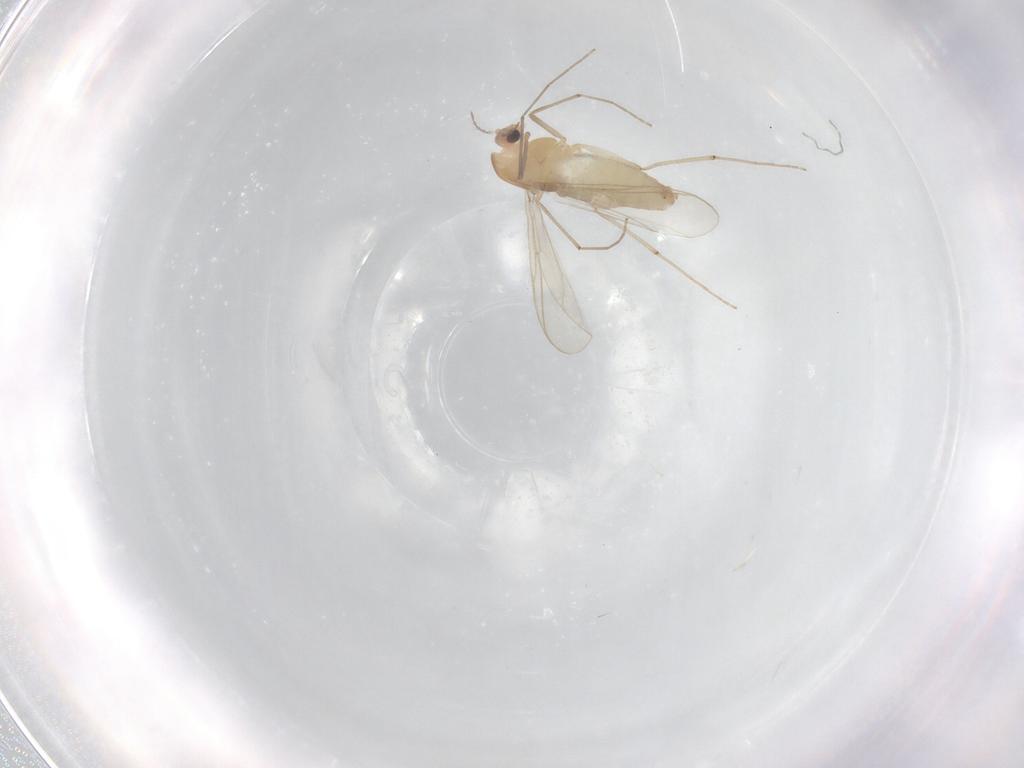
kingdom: Animalia
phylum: Arthropoda
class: Insecta
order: Diptera
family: Chironomidae
